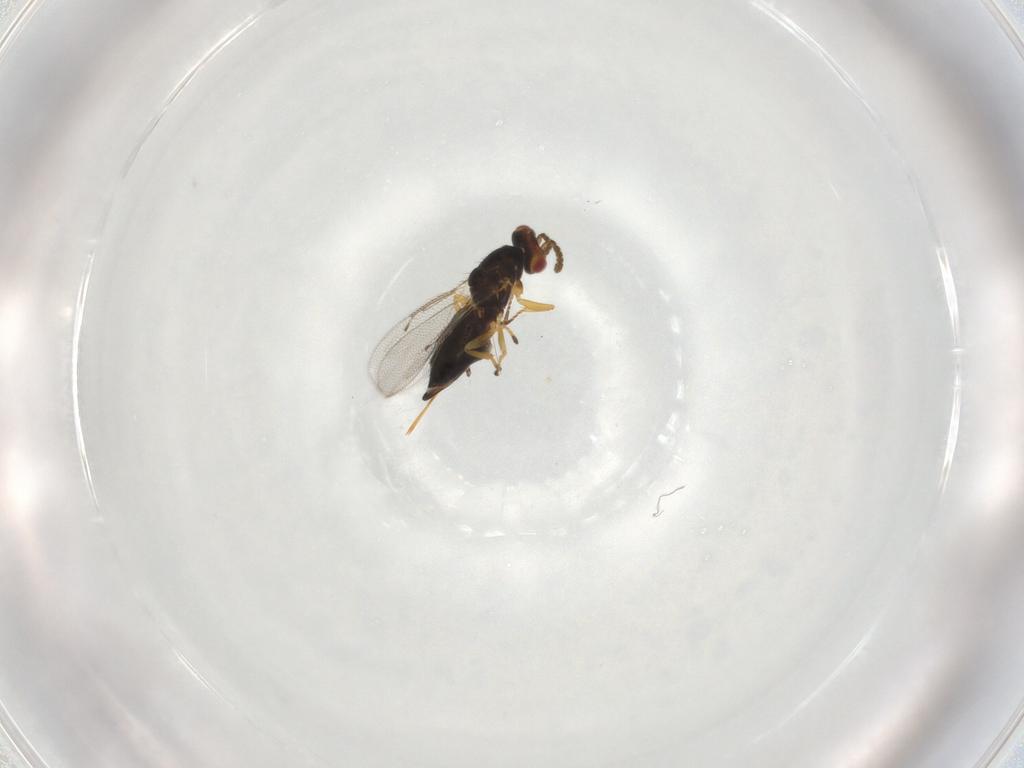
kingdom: Animalia
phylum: Arthropoda
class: Insecta
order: Hymenoptera
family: Eulophidae
